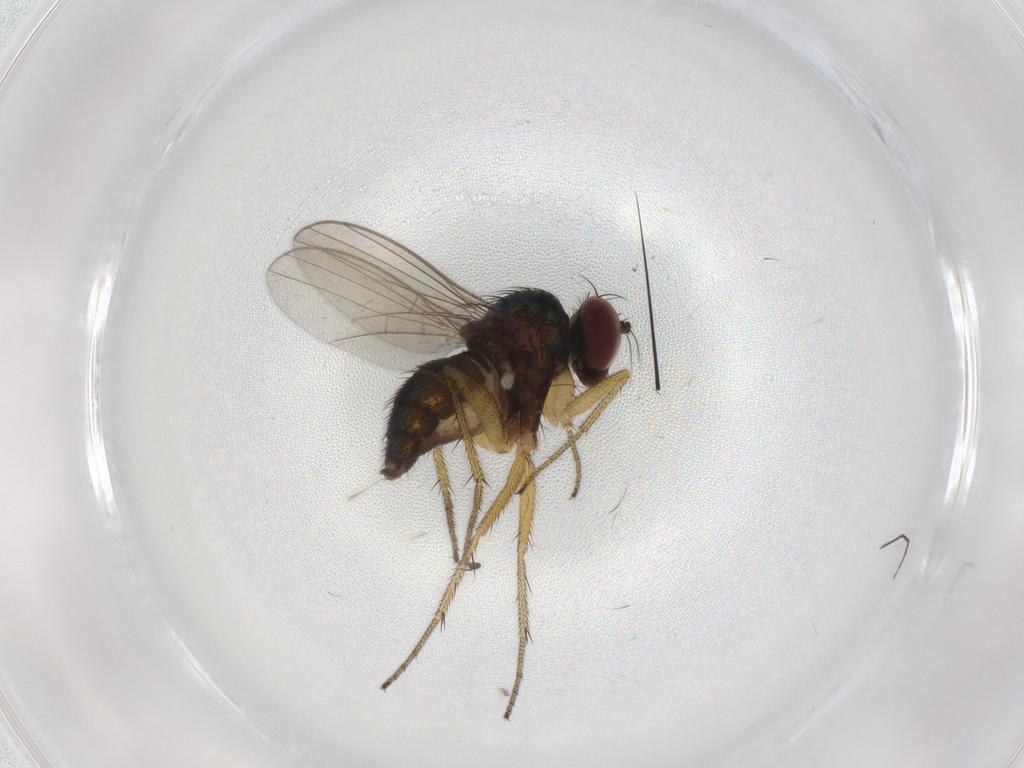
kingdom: Animalia
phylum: Arthropoda
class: Insecta
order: Diptera
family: Dolichopodidae
